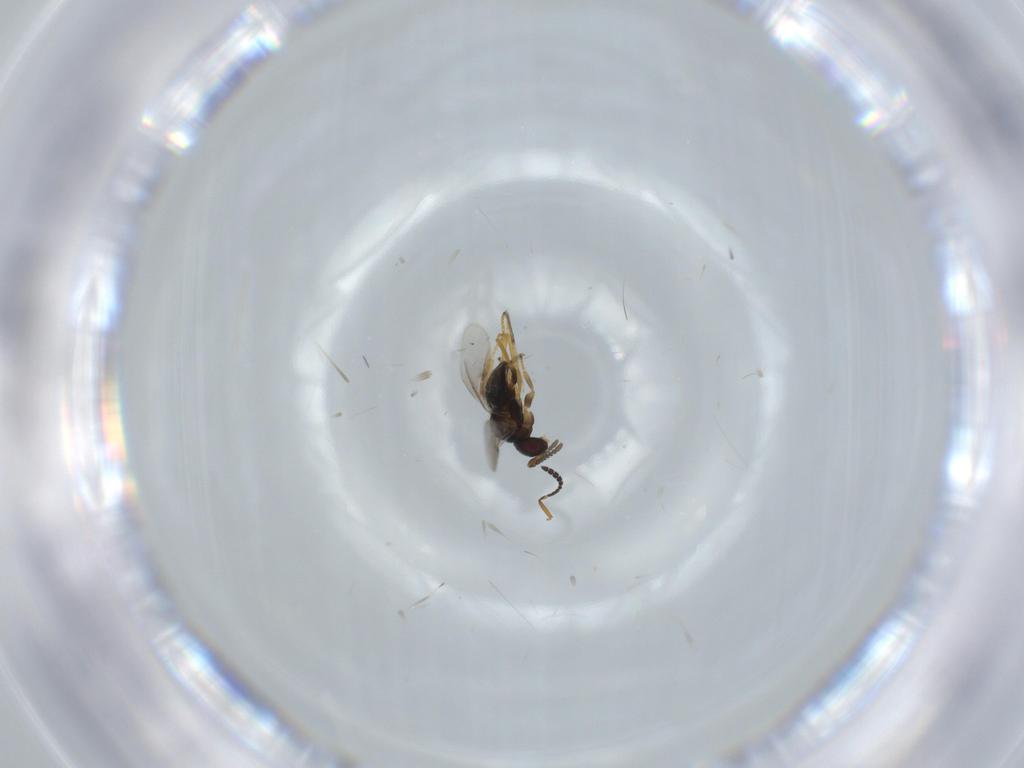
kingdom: Animalia
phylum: Arthropoda
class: Insecta
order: Hymenoptera
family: Scelionidae
